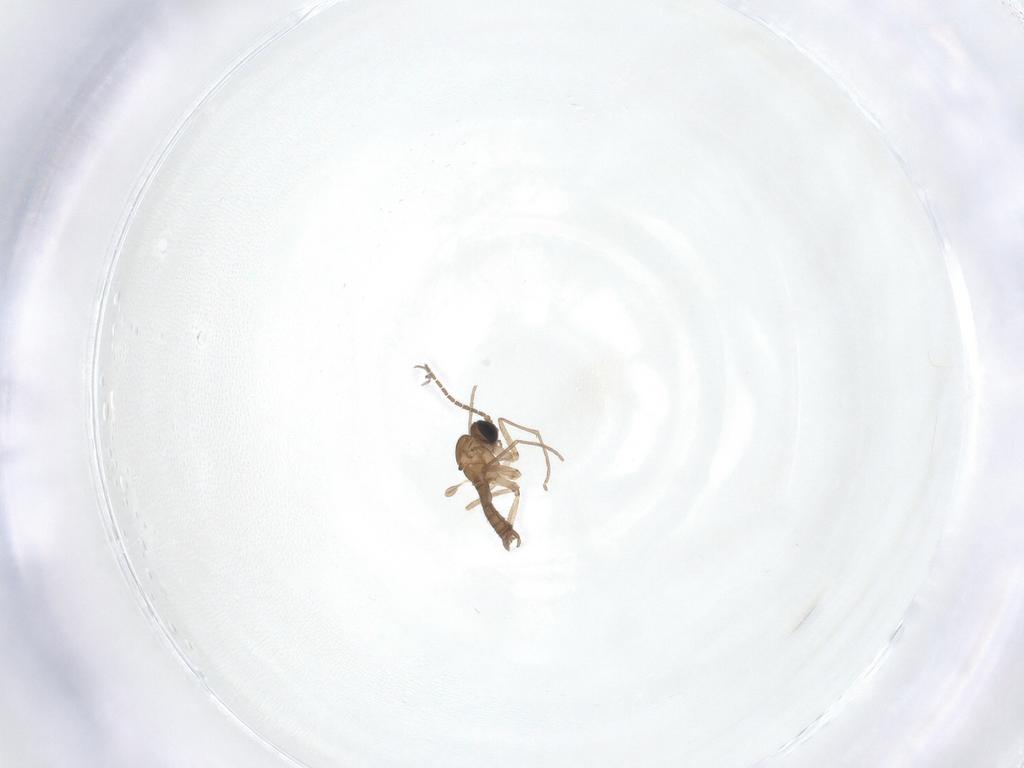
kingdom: Animalia
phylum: Arthropoda
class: Insecta
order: Diptera
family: Sciaridae
